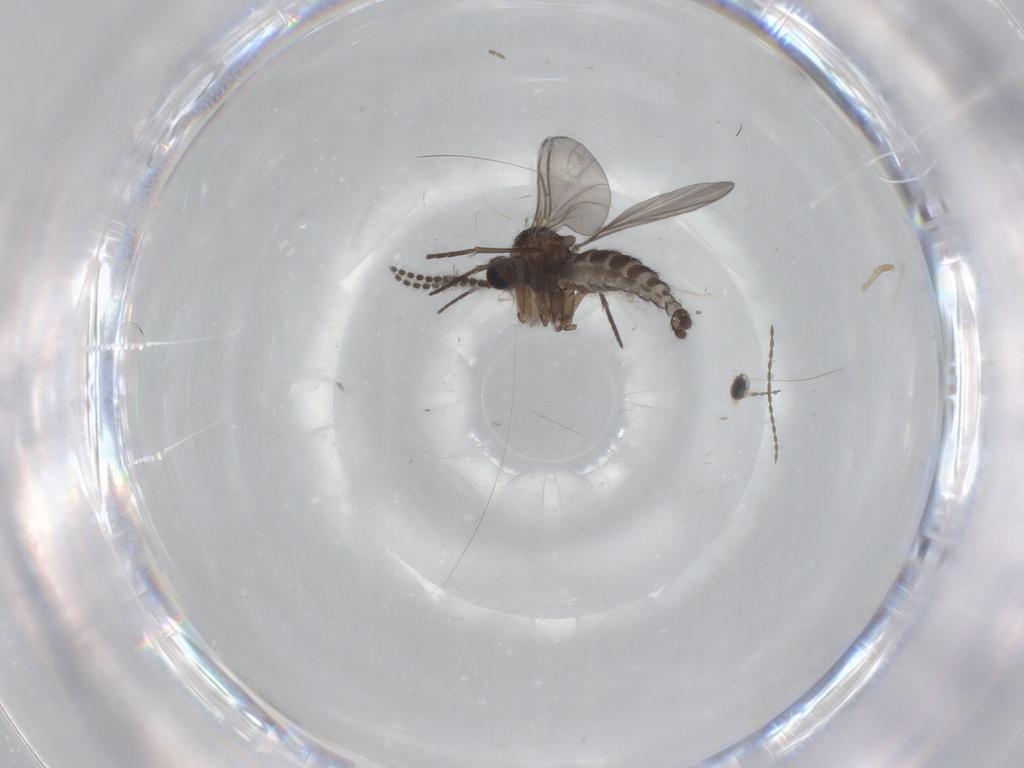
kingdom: Animalia
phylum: Arthropoda
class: Insecta
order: Diptera
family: Sciaridae
